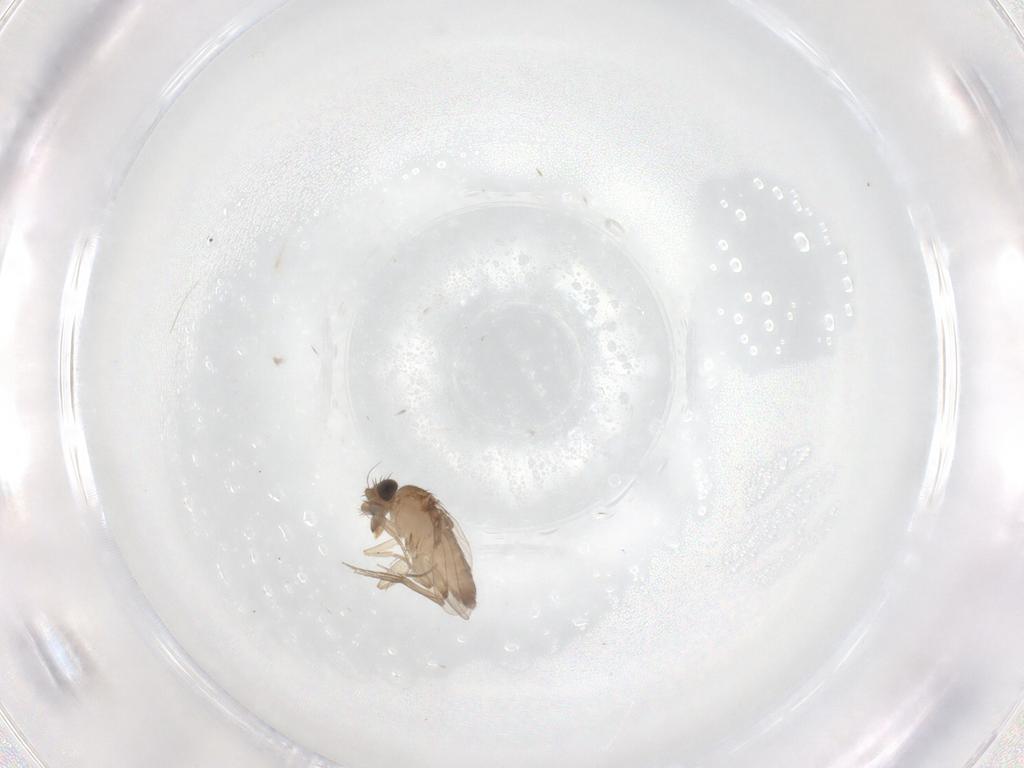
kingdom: Animalia
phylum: Arthropoda
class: Insecta
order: Diptera
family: Phoridae
